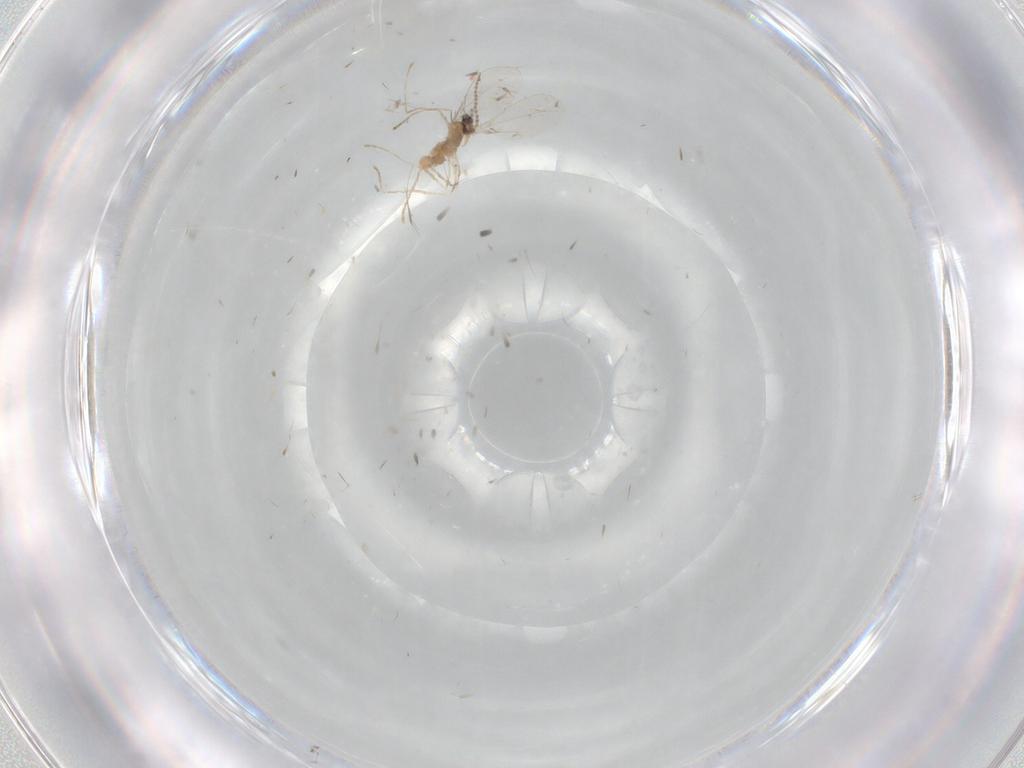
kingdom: Animalia
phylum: Arthropoda
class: Insecta
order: Diptera
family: Cecidomyiidae
